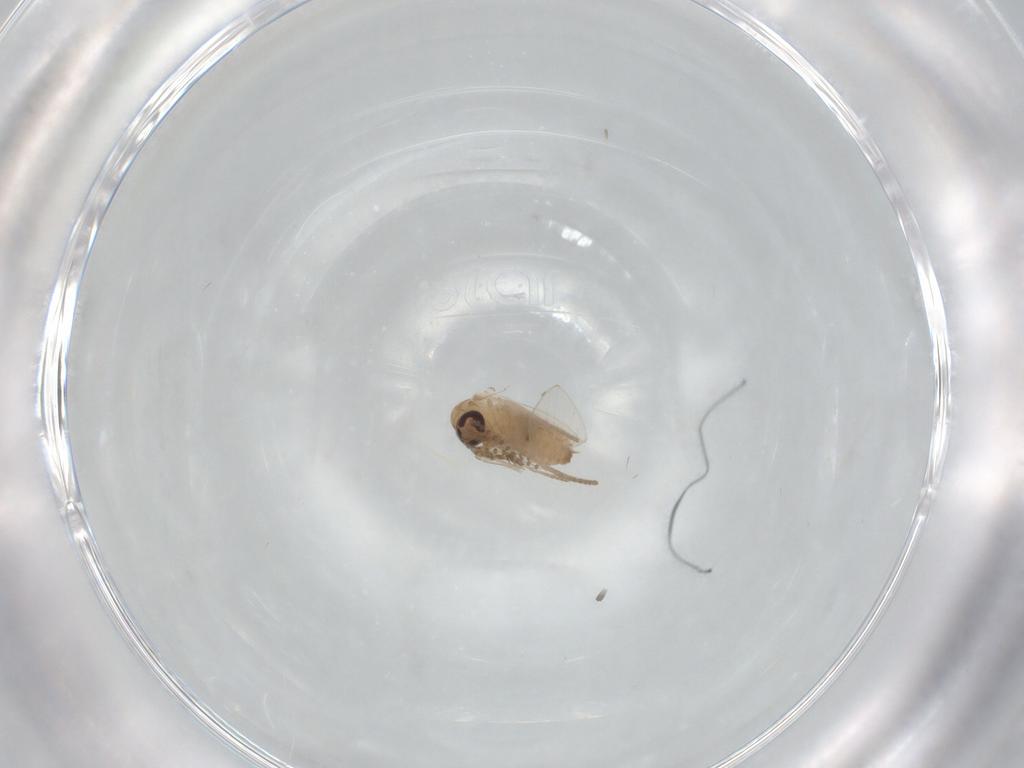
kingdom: Animalia
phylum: Arthropoda
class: Insecta
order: Diptera
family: Psychodidae
